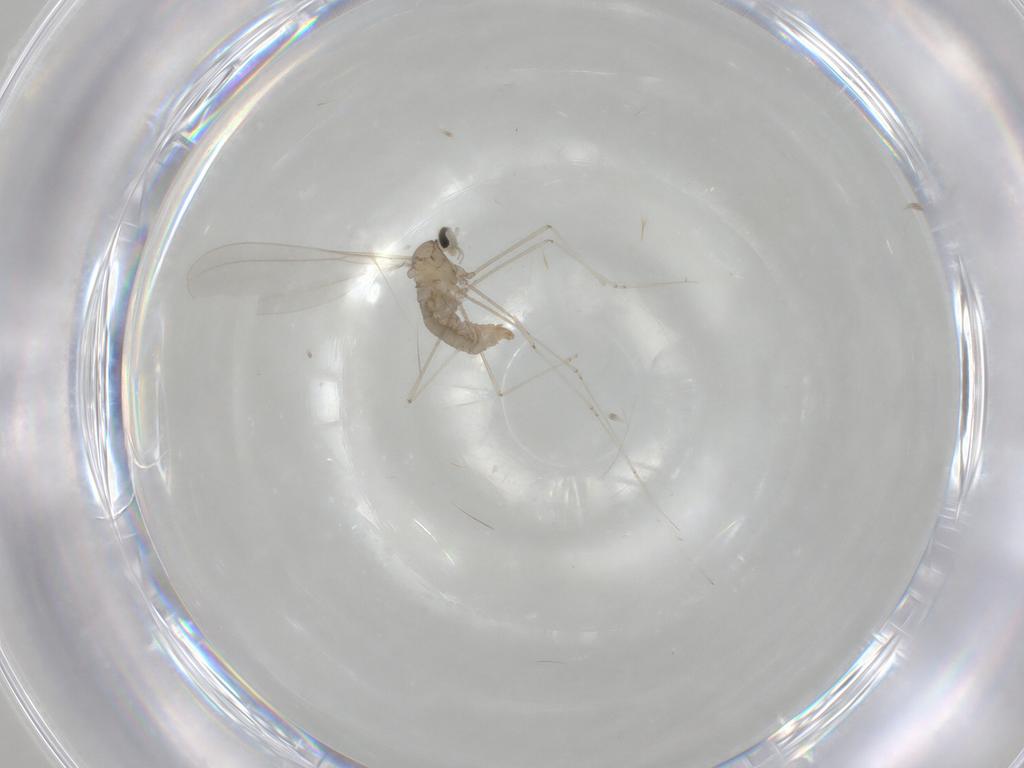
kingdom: Animalia
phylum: Arthropoda
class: Insecta
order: Diptera
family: Cecidomyiidae
